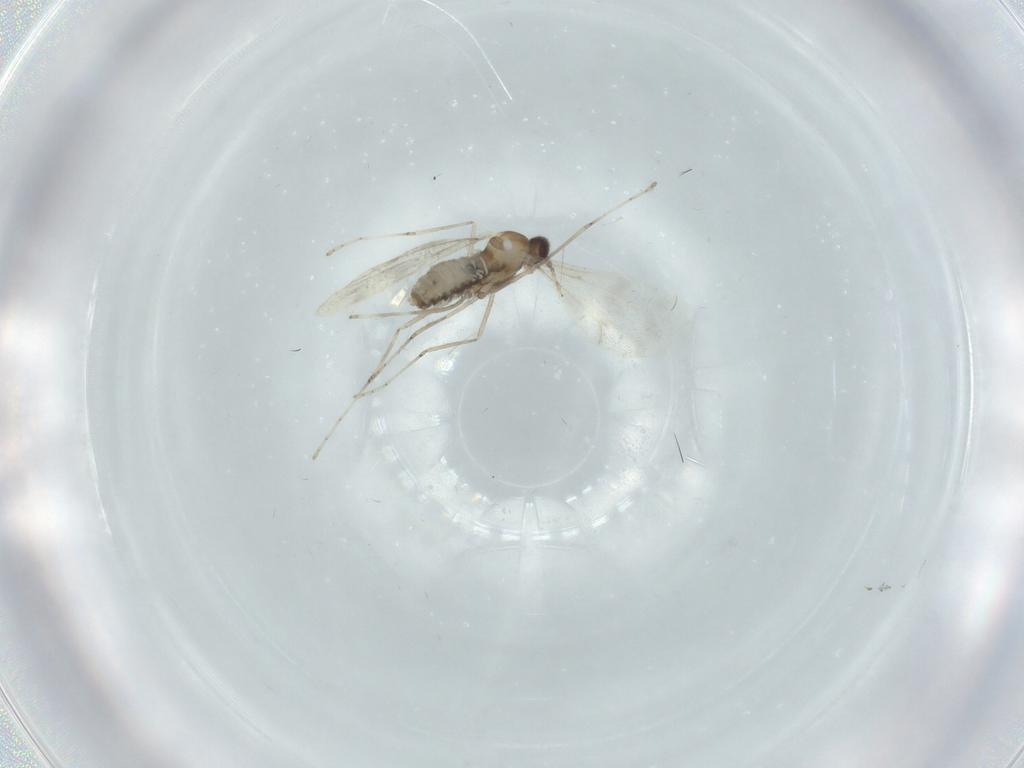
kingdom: Animalia
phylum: Arthropoda
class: Insecta
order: Diptera
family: Cecidomyiidae
